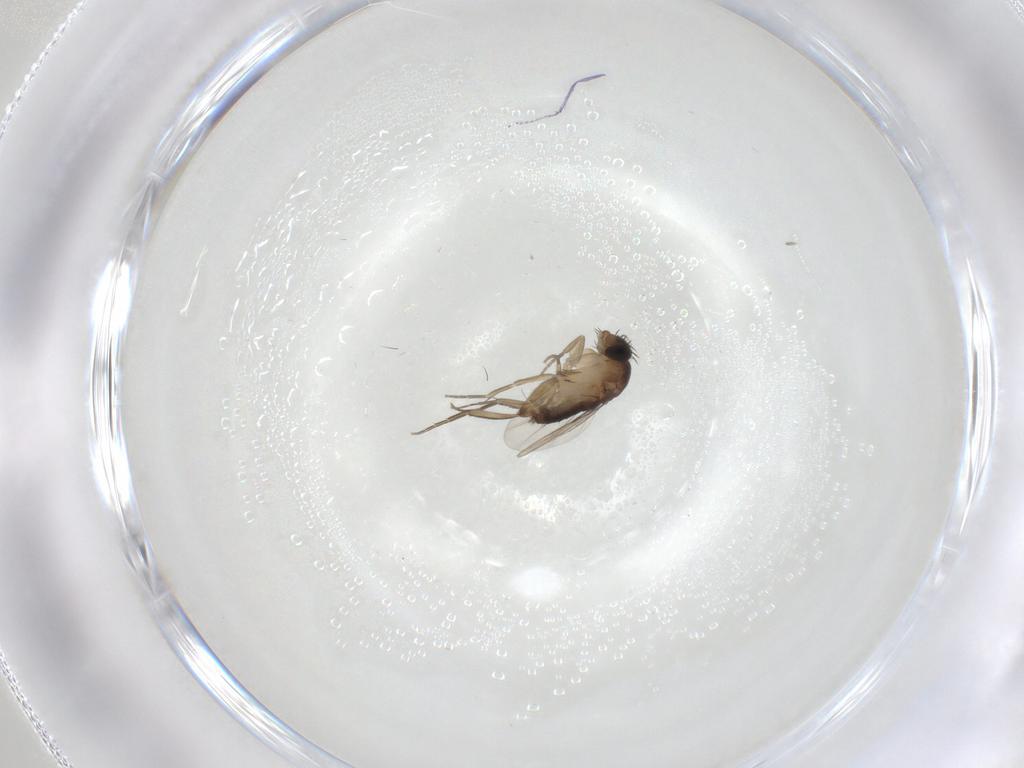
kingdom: Animalia
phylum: Arthropoda
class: Insecta
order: Diptera
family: Phoridae
